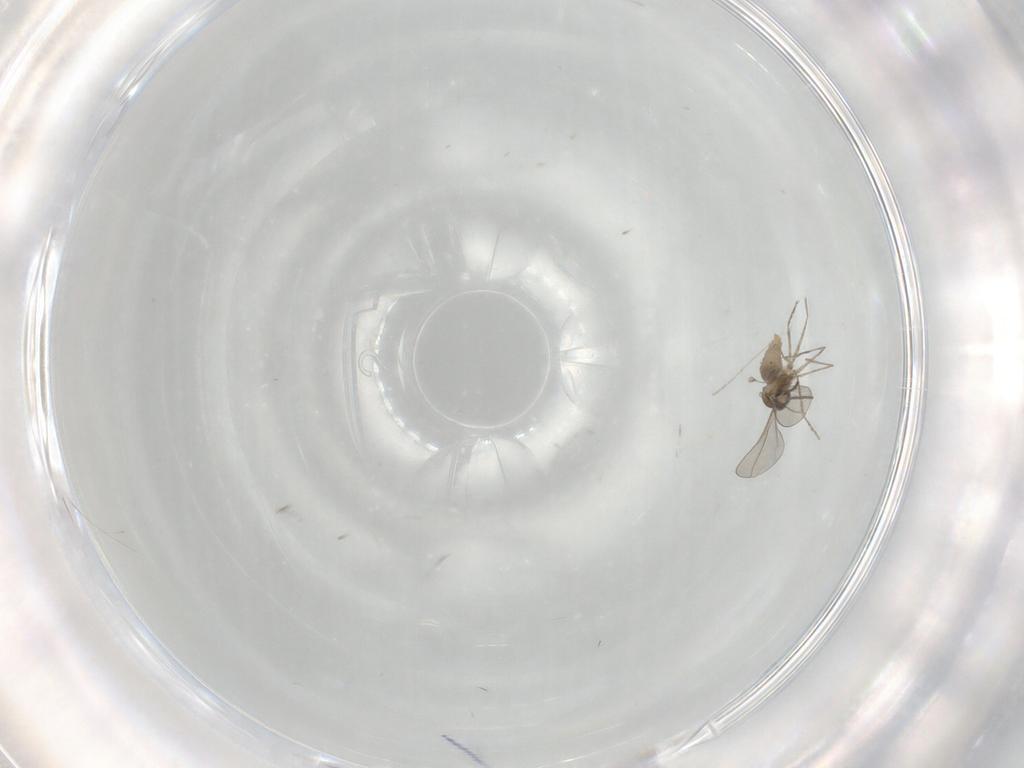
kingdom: Animalia
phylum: Arthropoda
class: Insecta
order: Diptera
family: Cecidomyiidae
